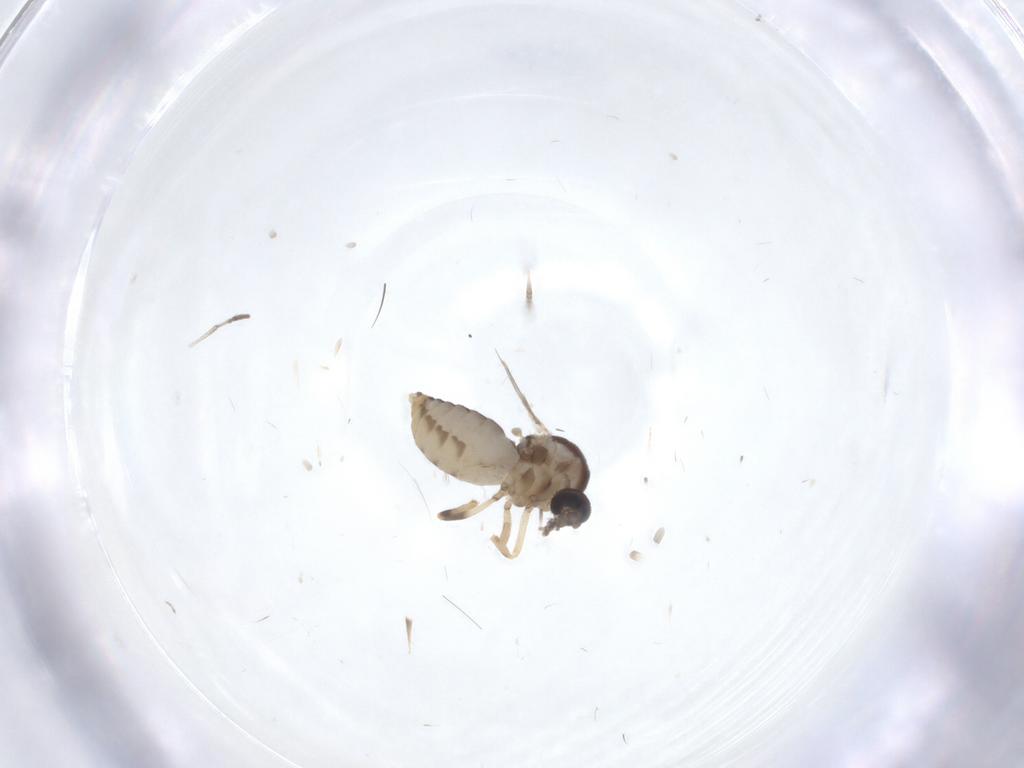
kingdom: Animalia
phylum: Arthropoda
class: Insecta
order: Diptera
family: Ceratopogonidae
